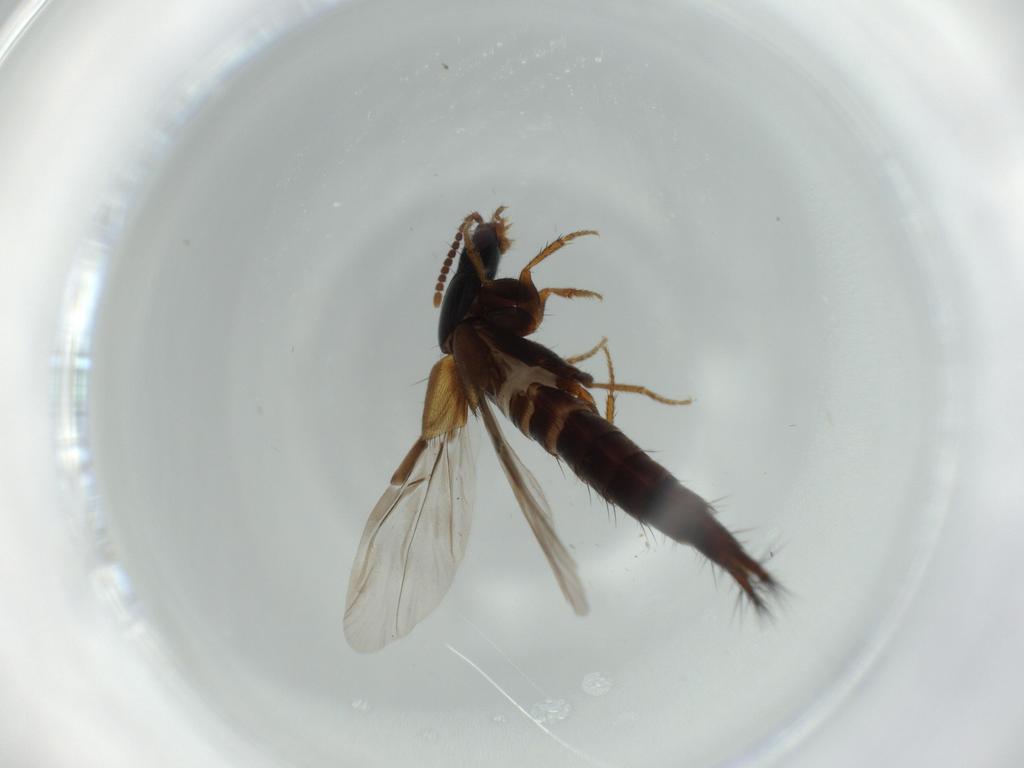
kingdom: Animalia
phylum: Arthropoda
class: Insecta
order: Coleoptera
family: Staphylinidae
